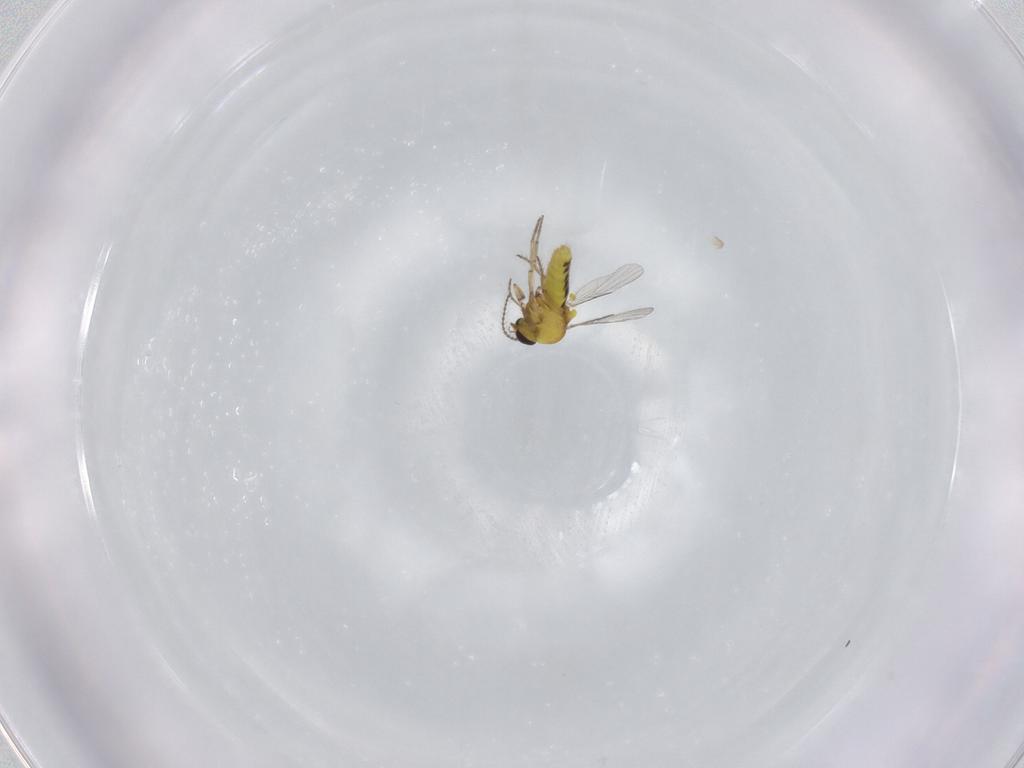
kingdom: Animalia
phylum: Arthropoda
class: Insecta
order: Diptera
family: Ceratopogonidae
